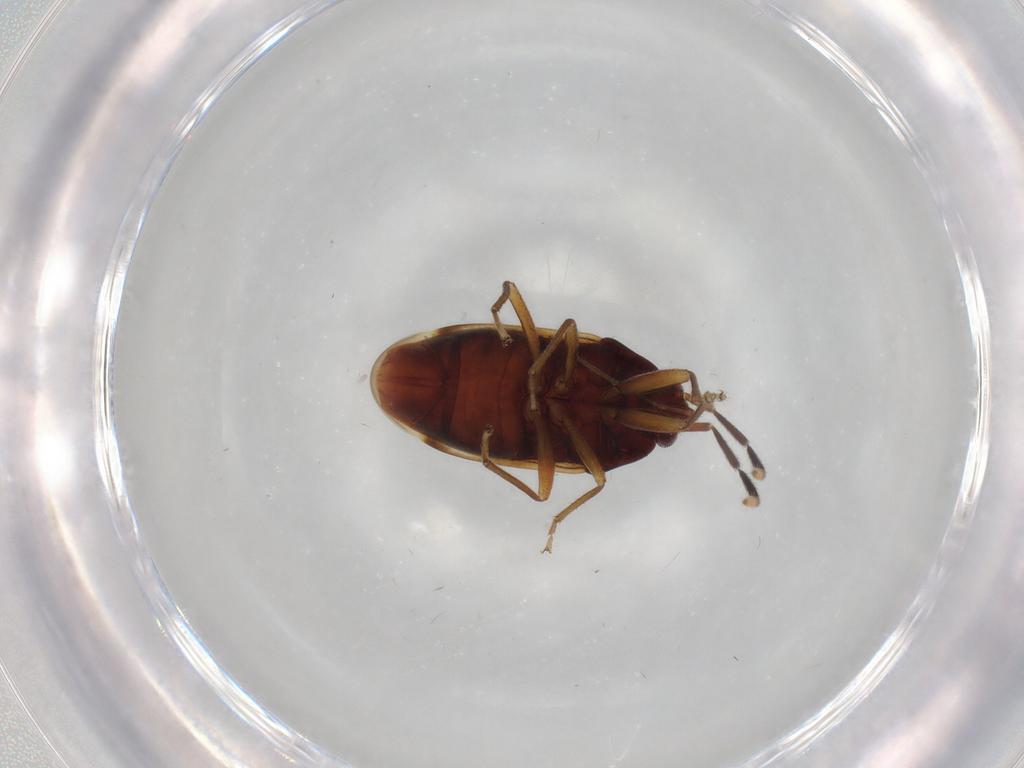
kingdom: Animalia
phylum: Arthropoda
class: Insecta
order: Hemiptera
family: Rhyparochromidae
